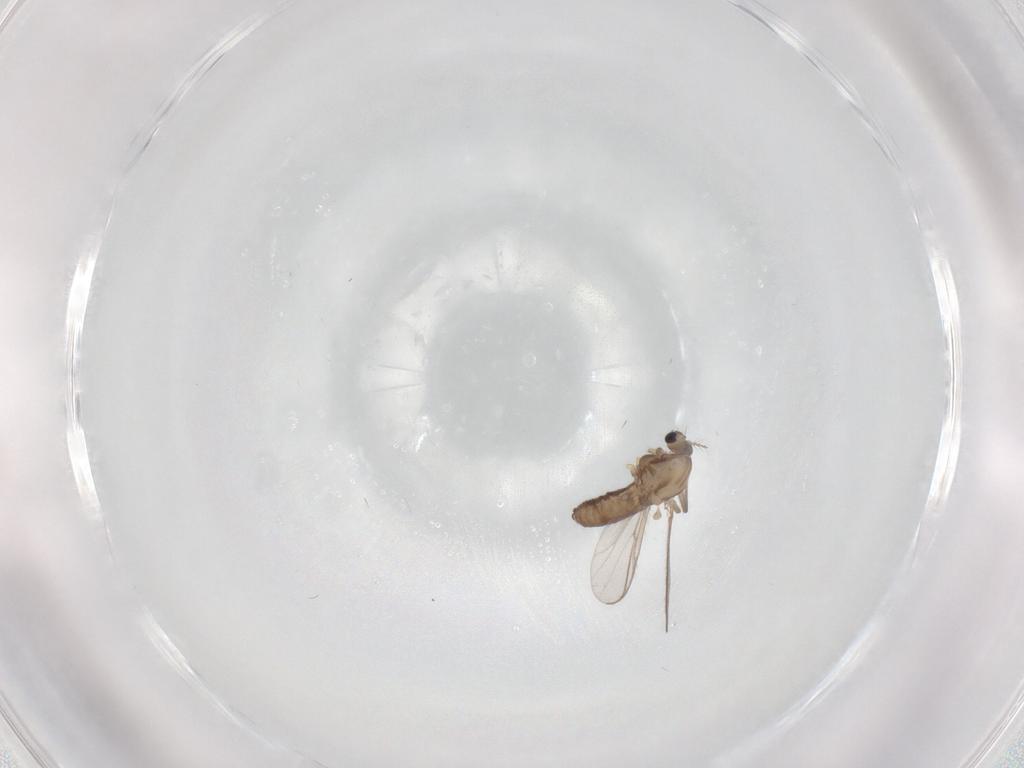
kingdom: Animalia
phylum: Arthropoda
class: Insecta
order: Diptera
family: Chironomidae
